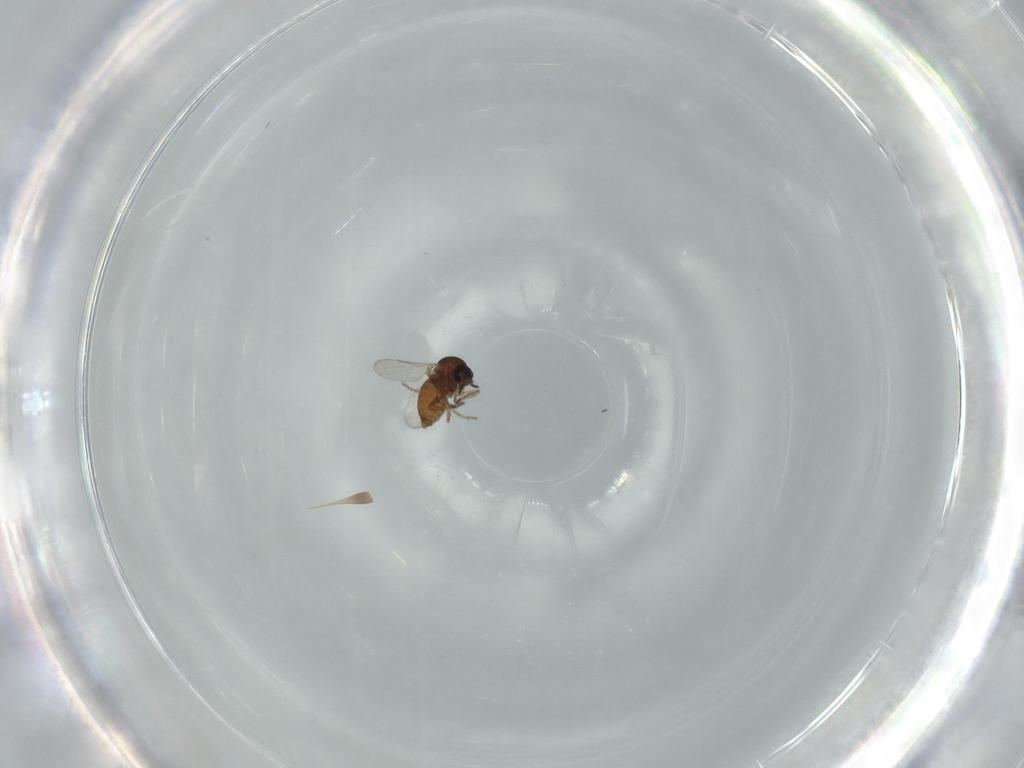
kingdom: Animalia
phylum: Arthropoda
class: Insecta
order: Diptera
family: Ceratopogonidae
